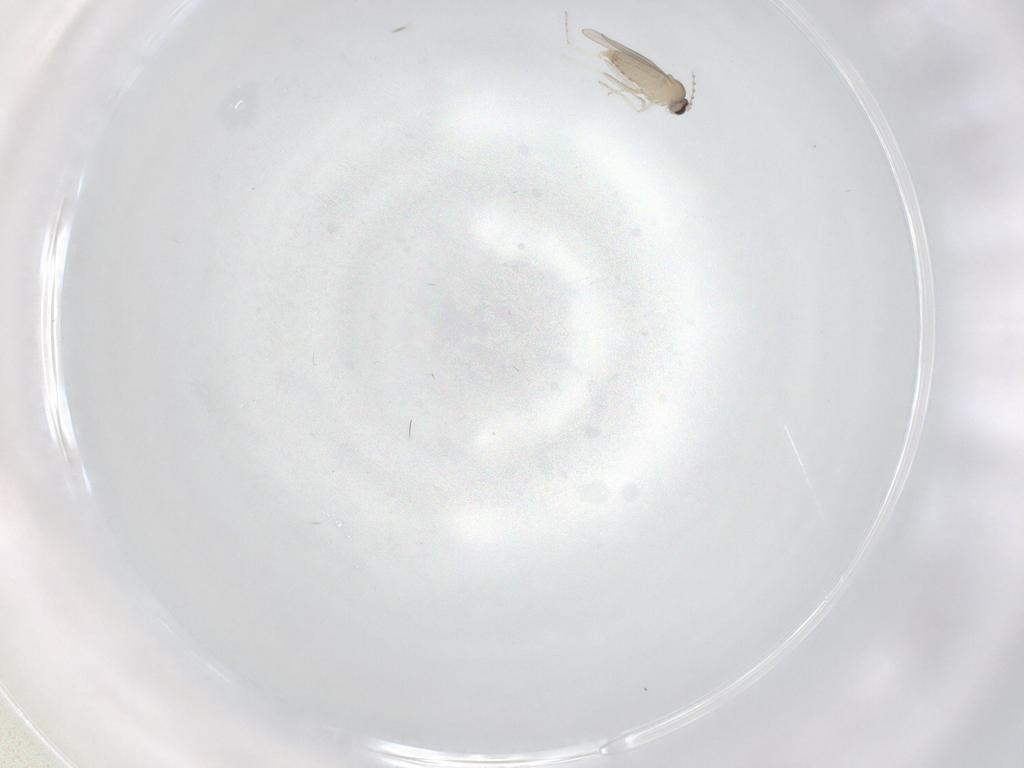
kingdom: Animalia
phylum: Arthropoda
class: Insecta
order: Diptera
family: Cecidomyiidae
